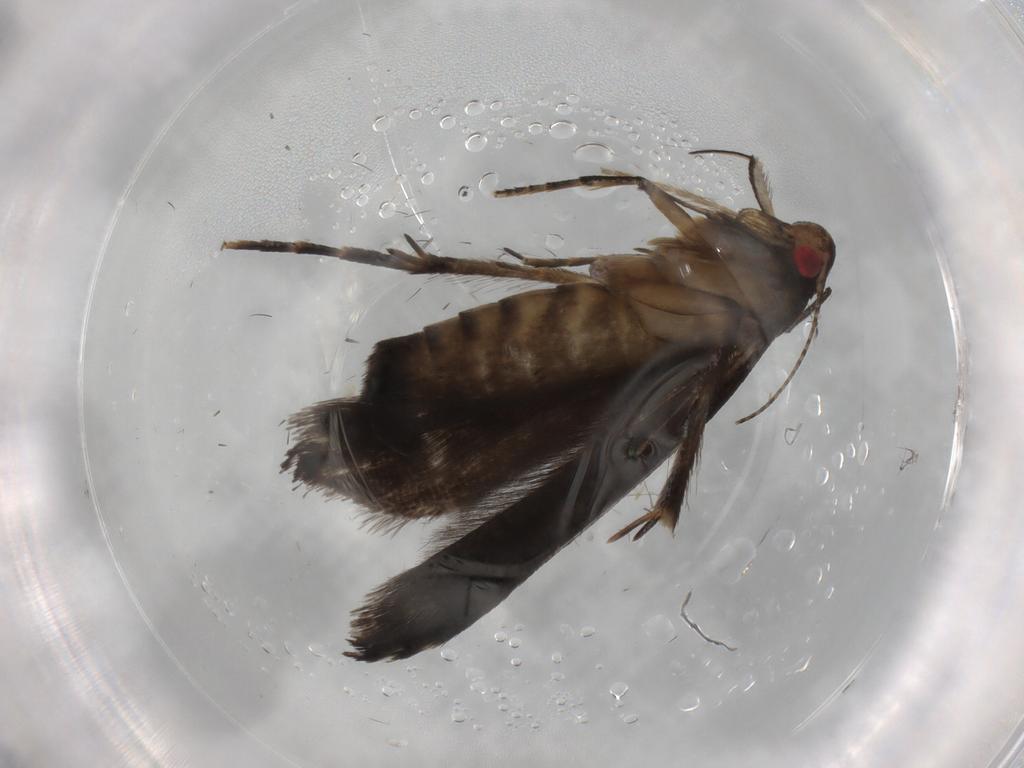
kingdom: Animalia
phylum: Arthropoda
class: Insecta
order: Lepidoptera
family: Gelechiidae
